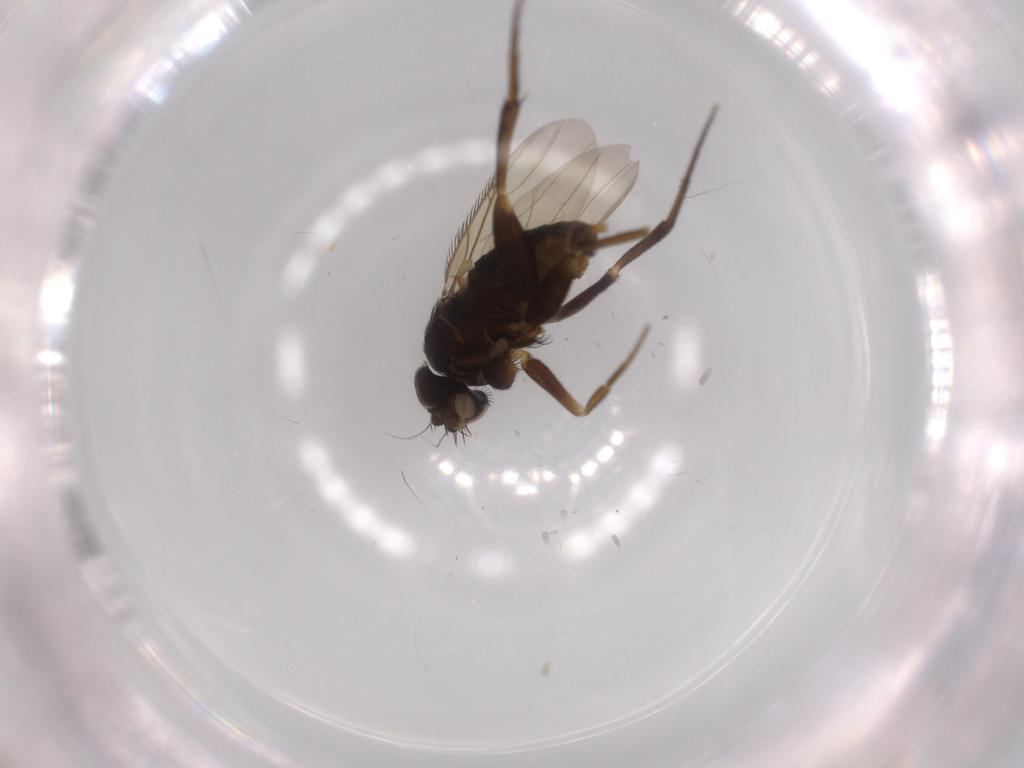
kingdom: Animalia
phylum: Arthropoda
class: Insecta
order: Diptera
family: Phoridae
